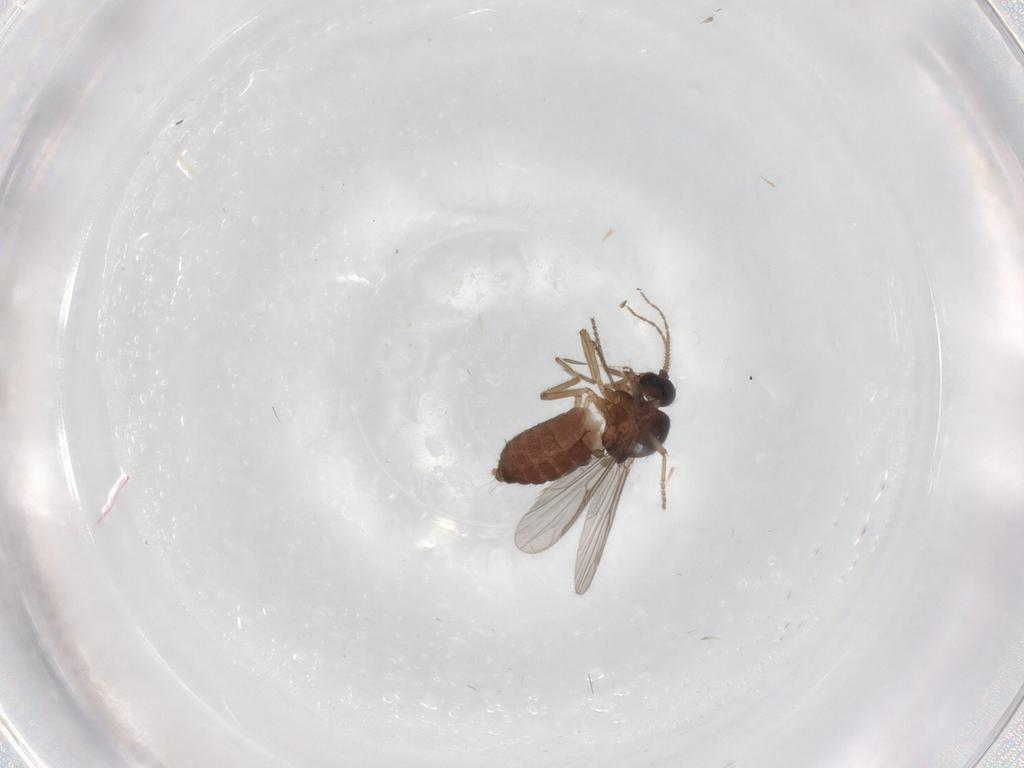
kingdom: Animalia
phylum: Arthropoda
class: Insecta
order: Diptera
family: Ceratopogonidae
